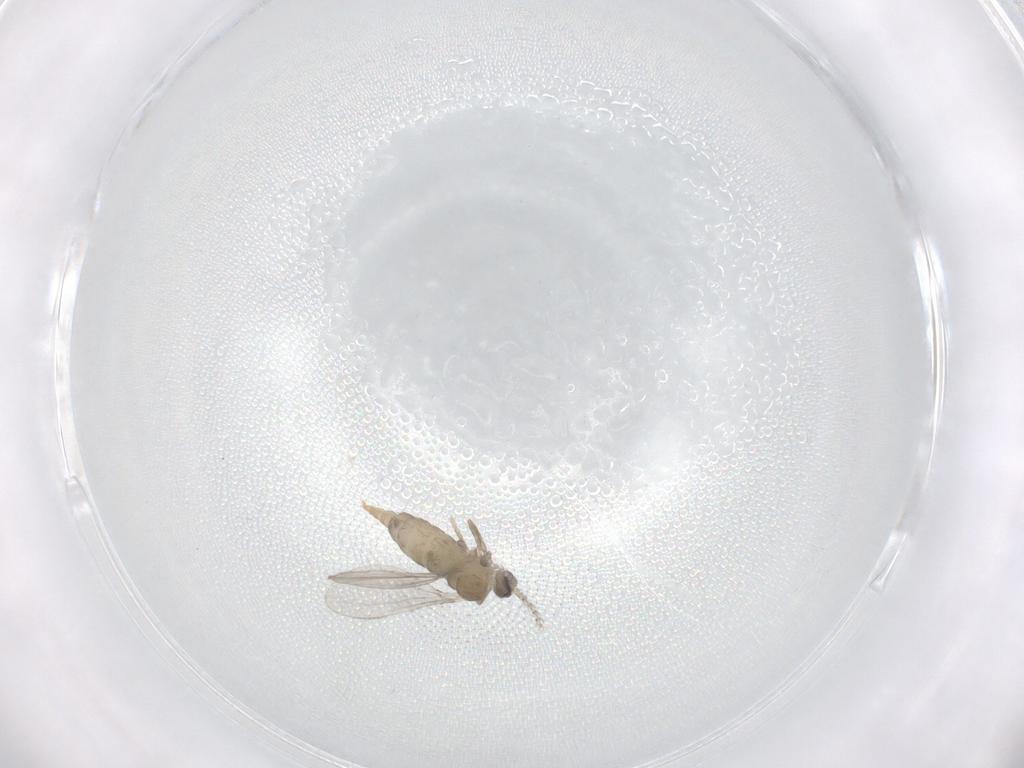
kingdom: Animalia
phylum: Arthropoda
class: Insecta
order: Diptera
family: Cecidomyiidae
